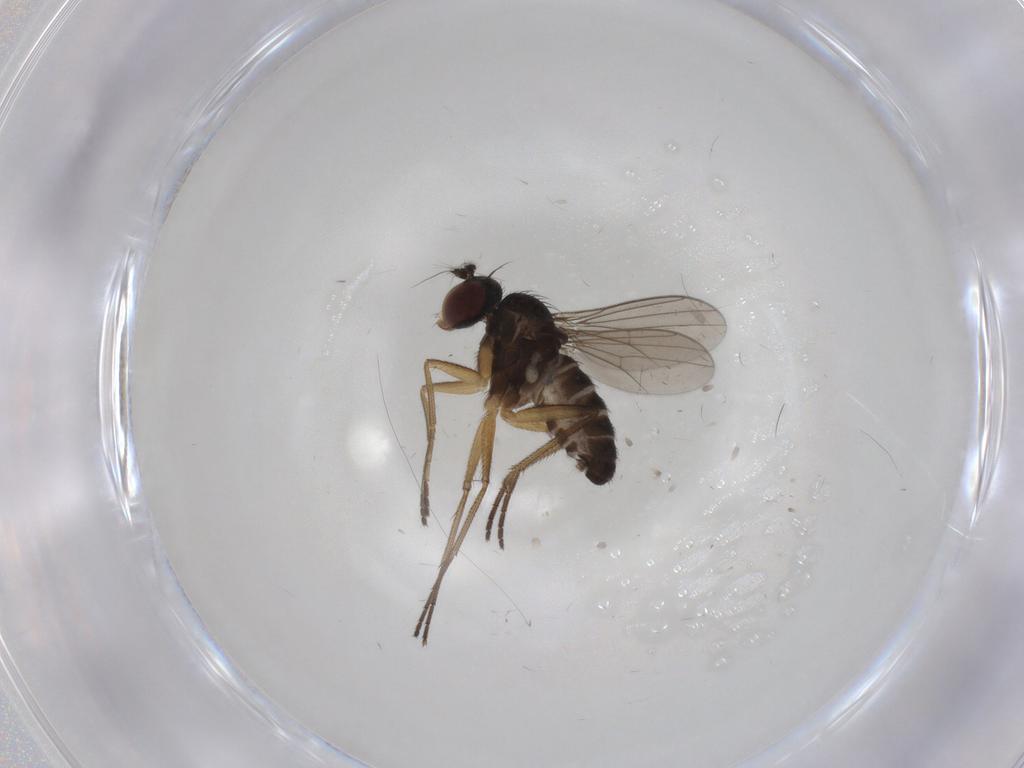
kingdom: Animalia
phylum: Arthropoda
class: Insecta
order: Diptera
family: Dolichopodidae
